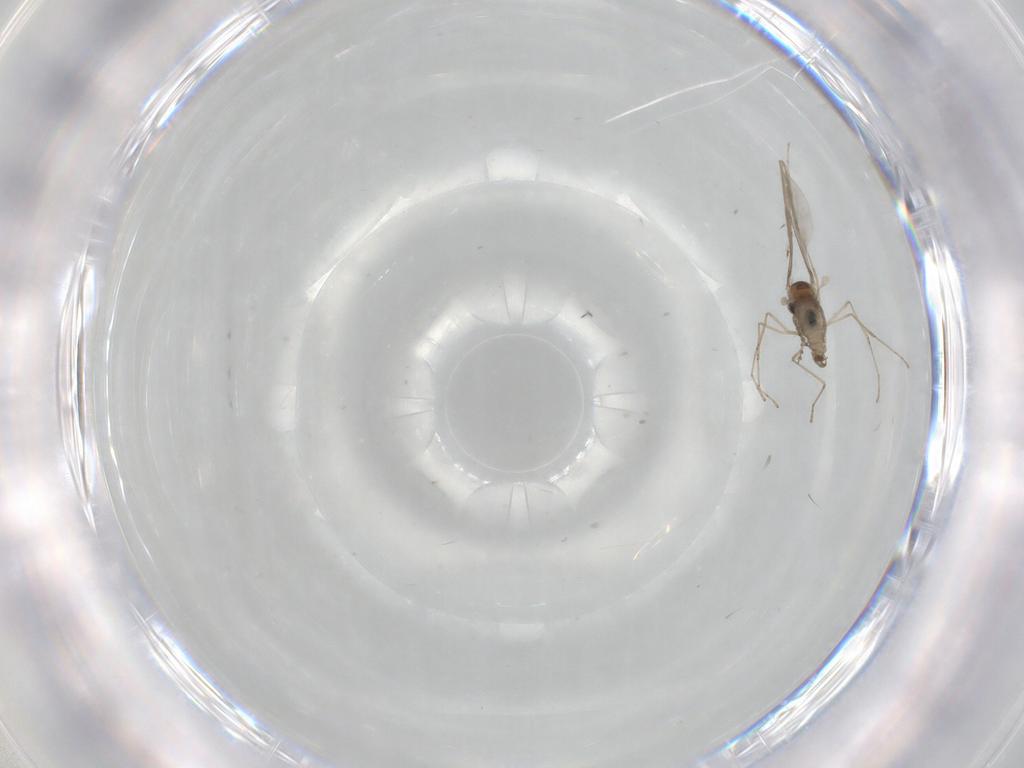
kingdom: Animalia
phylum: Arthropoda
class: Insecta
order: Diptera
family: Cecidomyiidae
